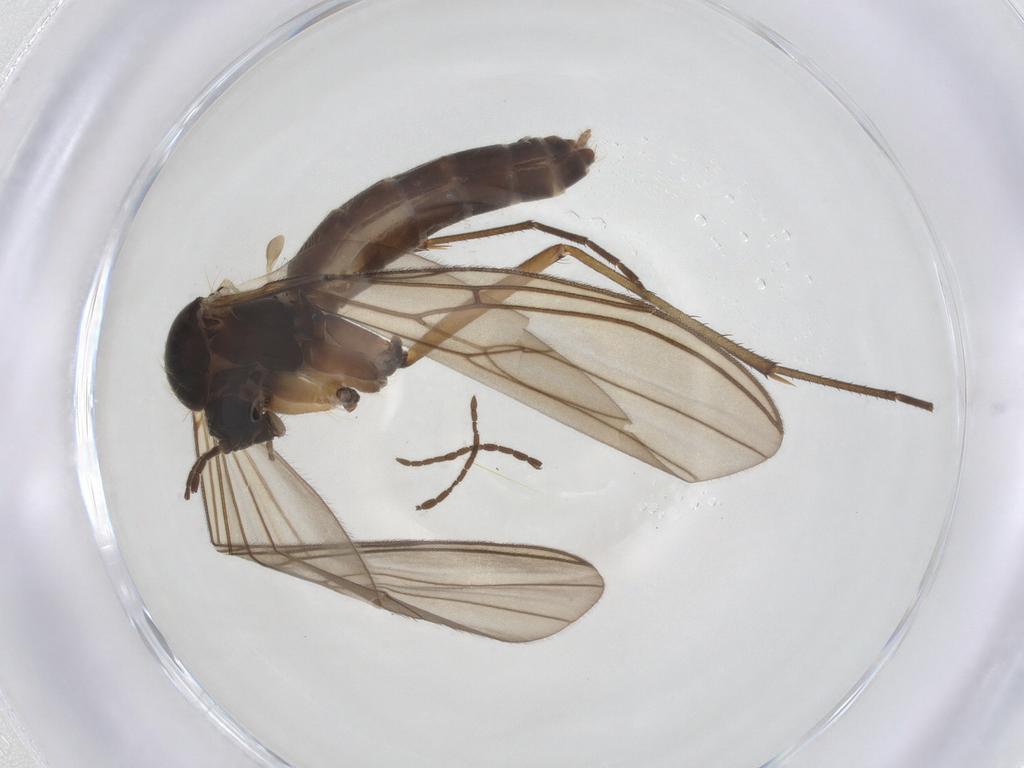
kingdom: Animalia
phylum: Arthropoda
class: Insecta
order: Diptera
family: Mycetophilidae
